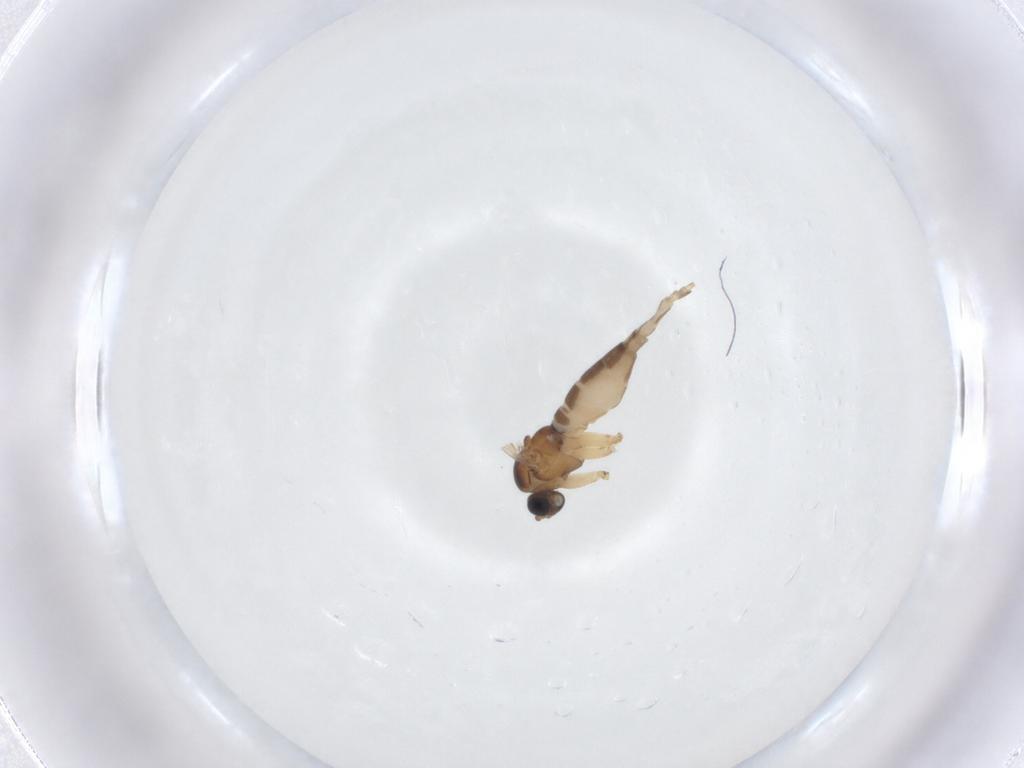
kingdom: Animalia
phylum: Arthropoda
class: Insecta
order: Diptera
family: Sciaridae
